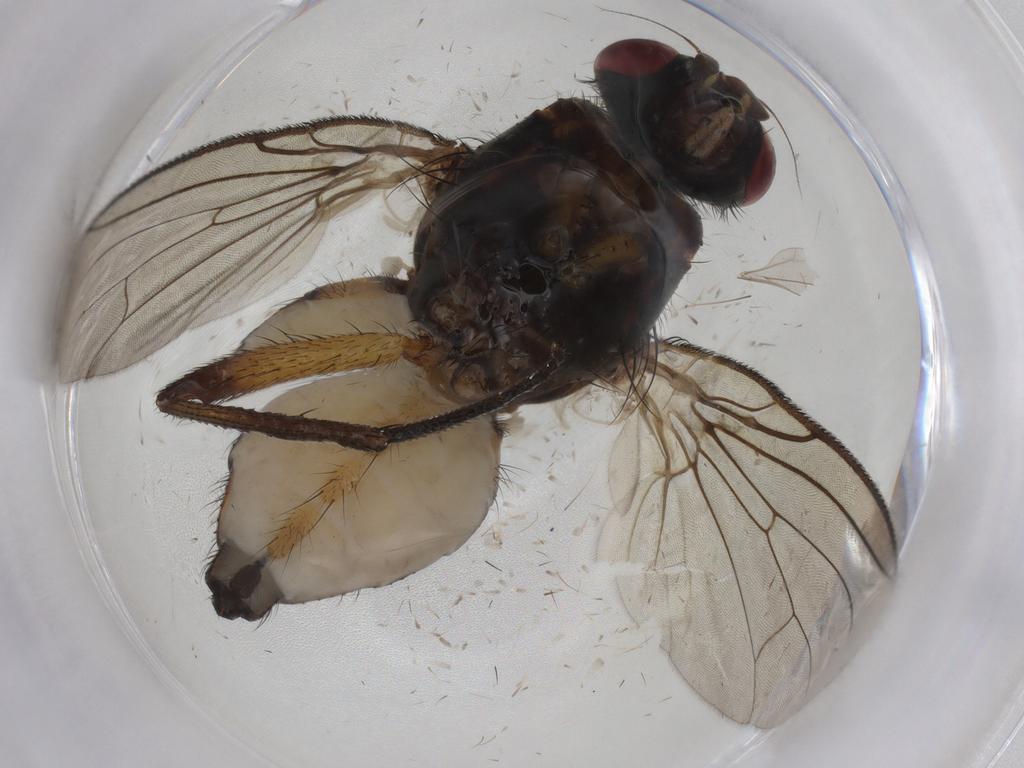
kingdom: Animalia
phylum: Arthropoda
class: Insecta
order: Diptera
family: Anthomyiidae
